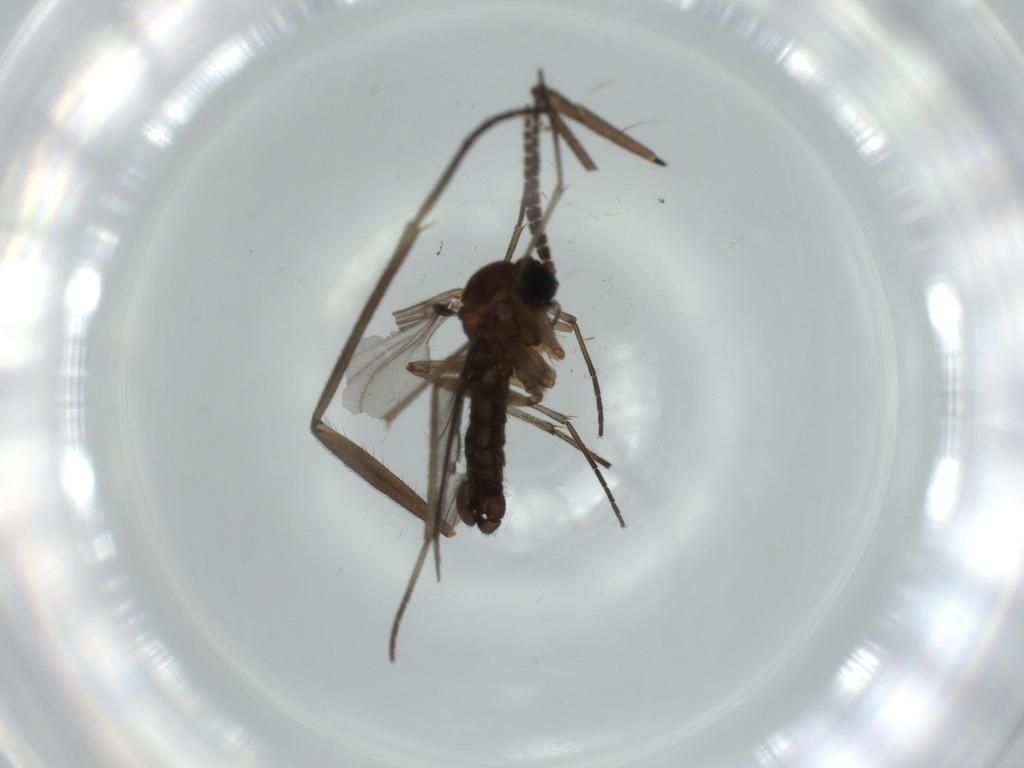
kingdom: Animalia
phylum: Arthropoda
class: Insecta
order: Diptera
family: Sciaridae
